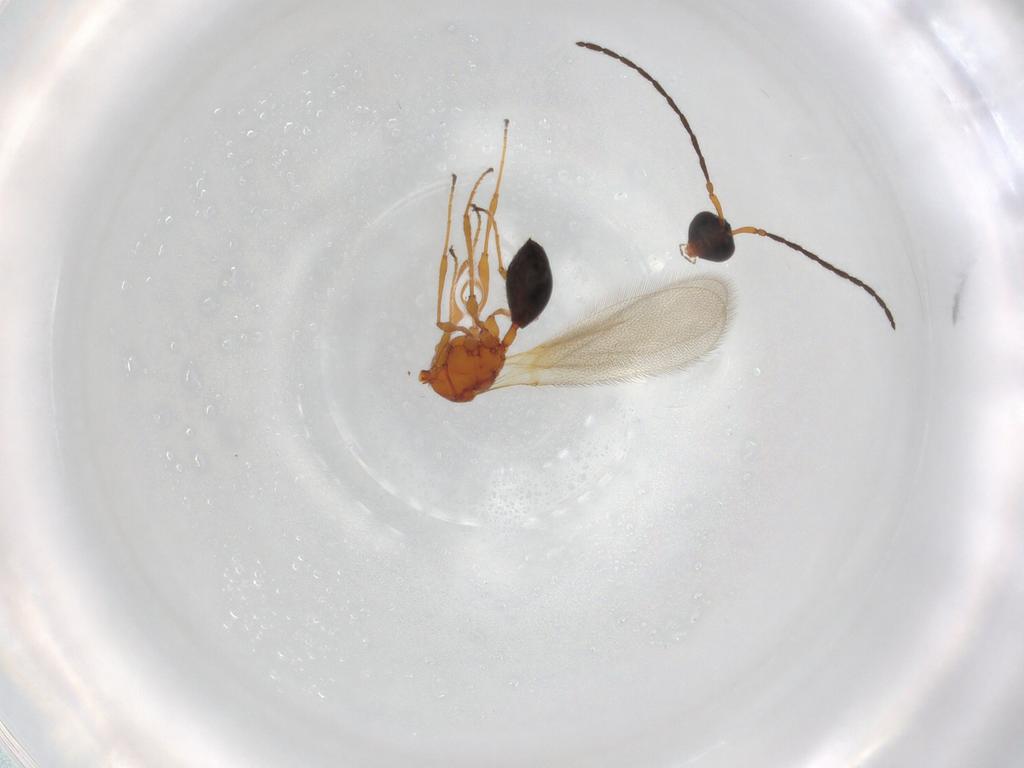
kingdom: Animalia
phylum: Arthropoda
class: Insecta
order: Hymenoptera
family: Diapriidae
